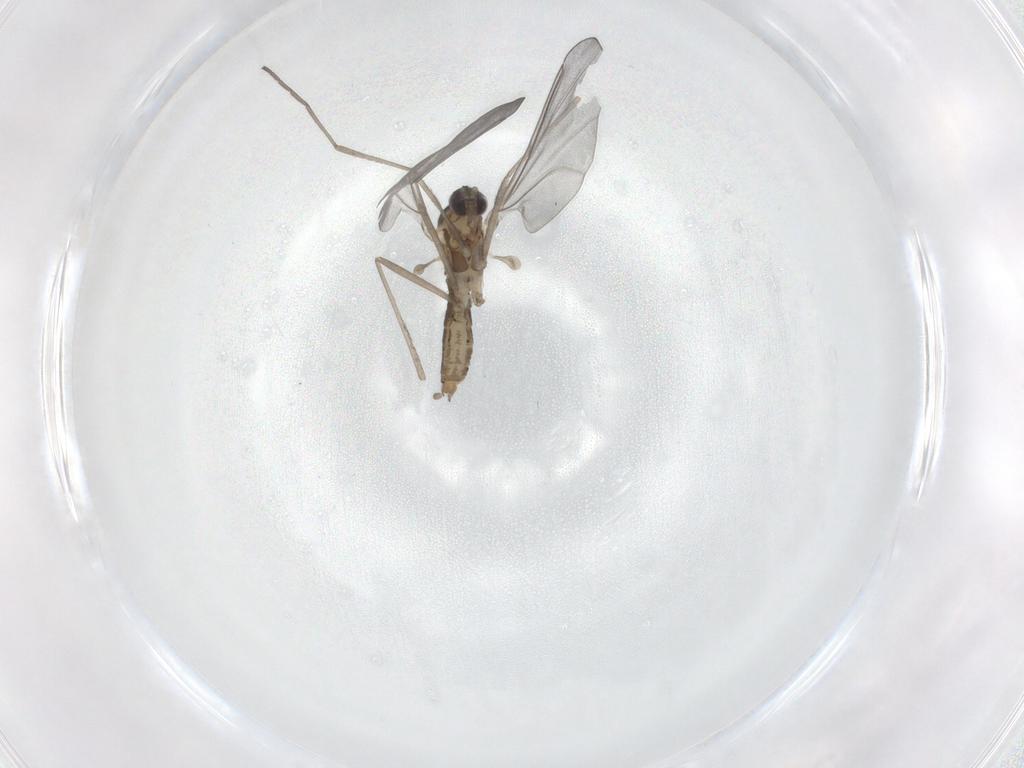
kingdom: Animalia
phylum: Arthropoda
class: Insecta
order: Diptera
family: Cecidomyiidae
